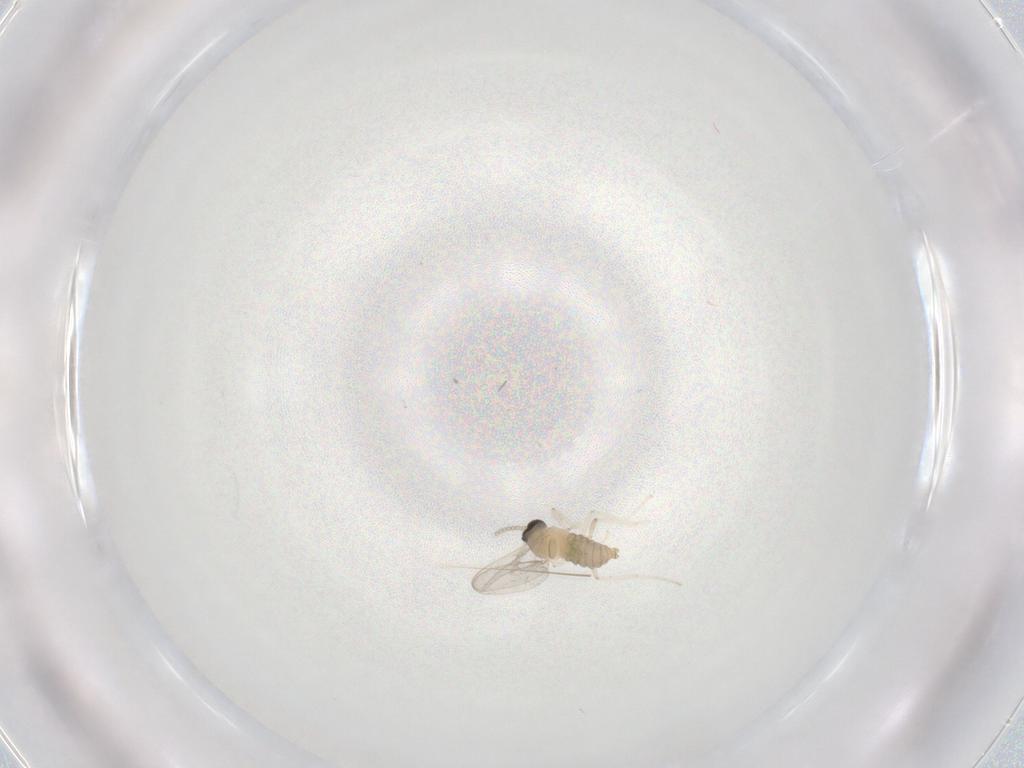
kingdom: Animalia
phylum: Arthropoda
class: Insecta
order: Diptera
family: Cecidomyiidae
